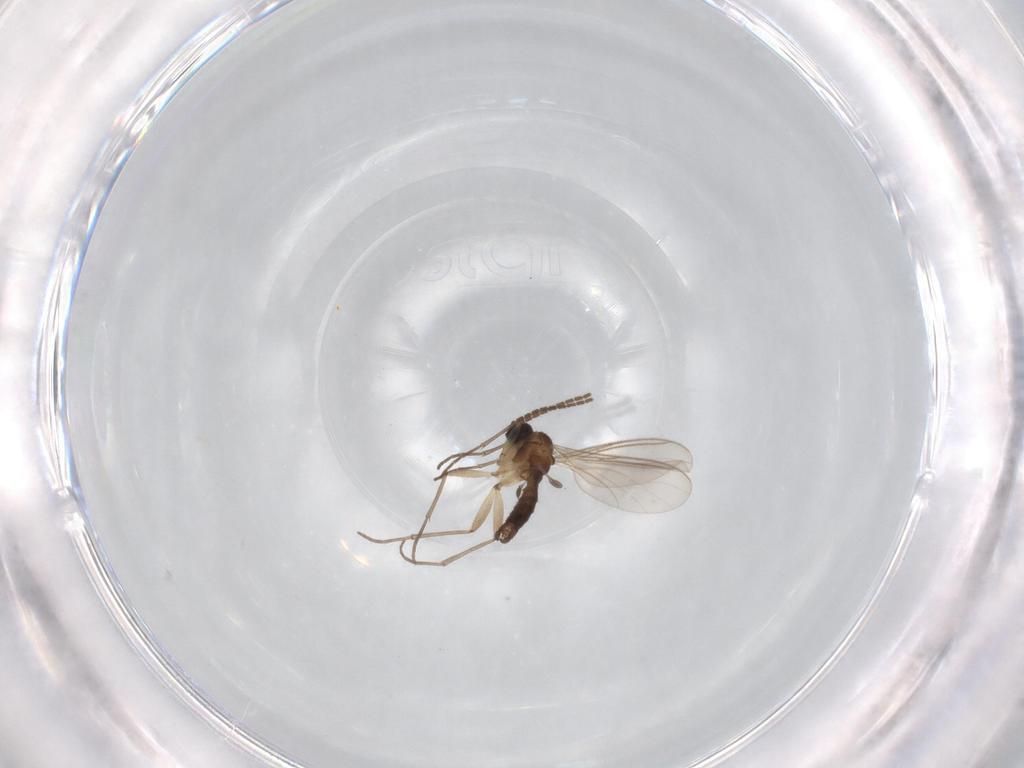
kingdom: Animalia
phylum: Arthropoda
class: Insecta
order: Diptera
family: Sciaridae
